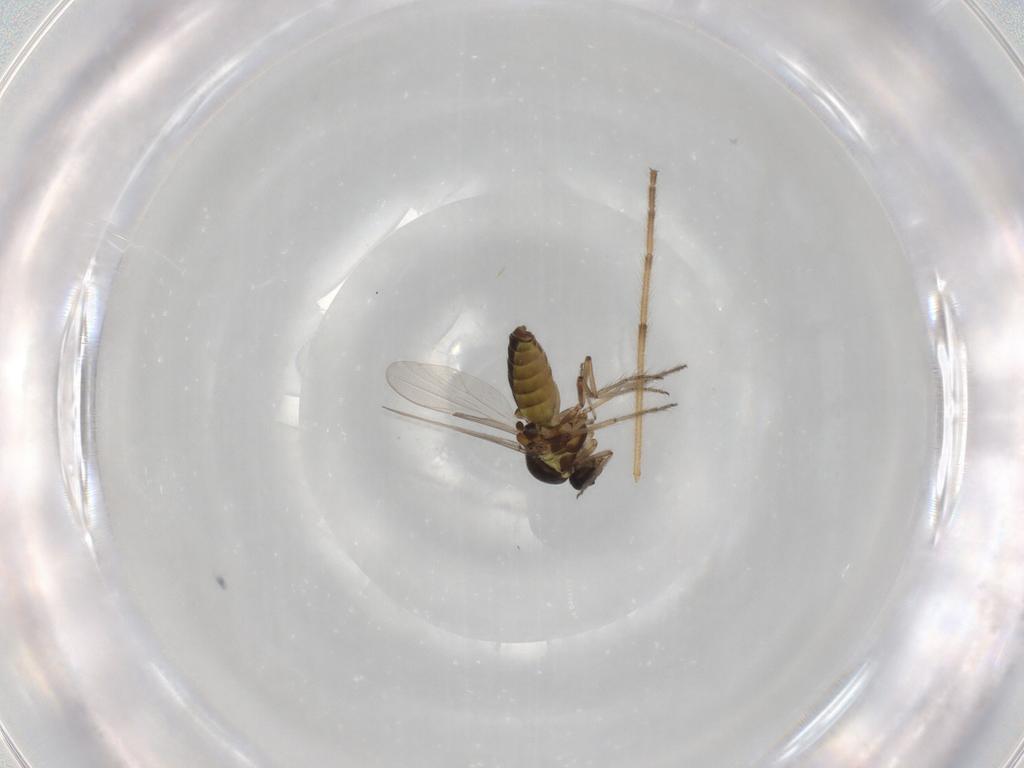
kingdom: Animalia
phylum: Arthropoda
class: Insecta
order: Diptera
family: Ceratopogonidae
